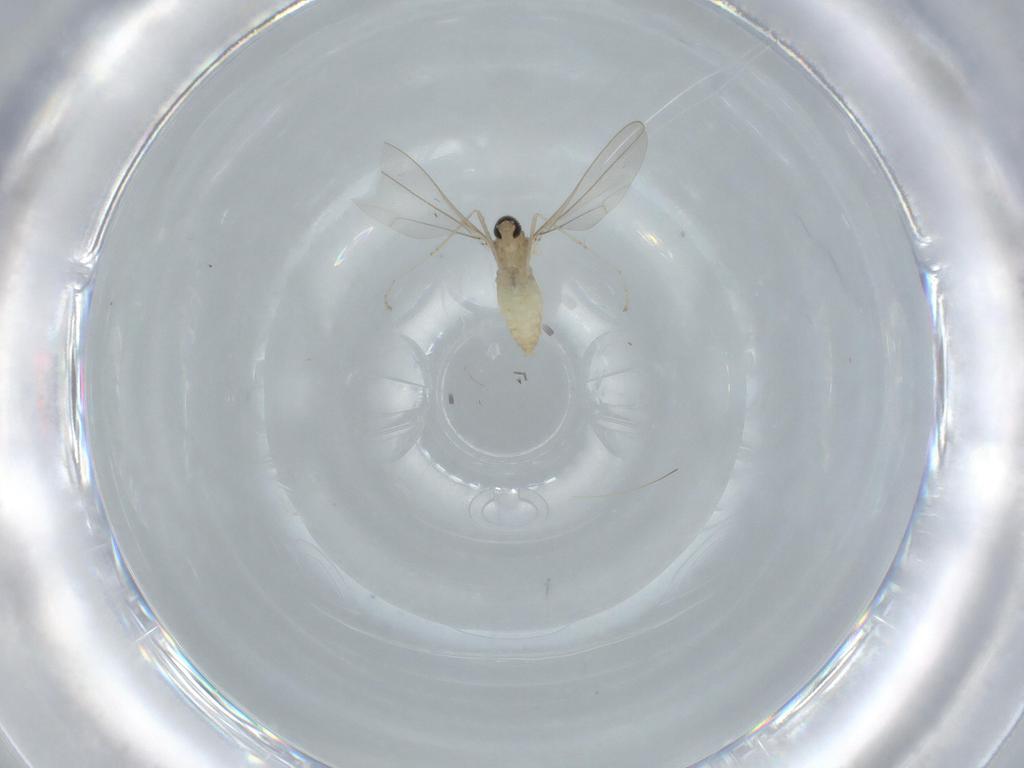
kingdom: Animalia
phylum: Arthropoda
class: Insecta
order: Diptera
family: Cecidomyiidae
